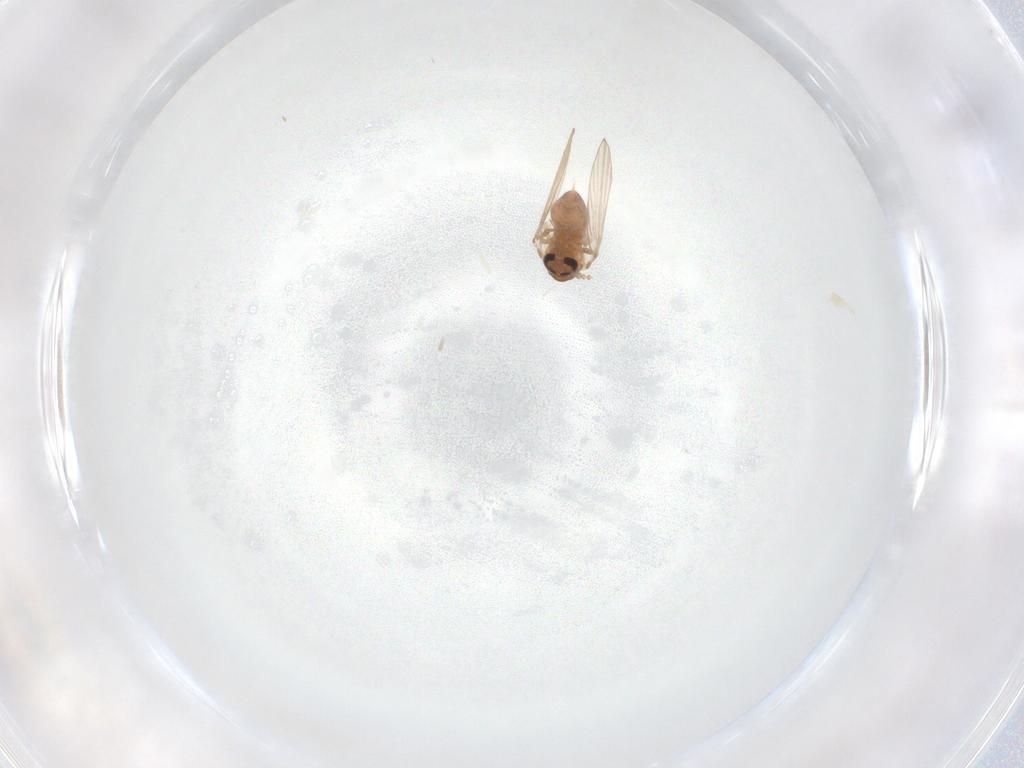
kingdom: Animalia
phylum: Arthropoda
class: Insecta
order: Diptera
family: Psychodidae
